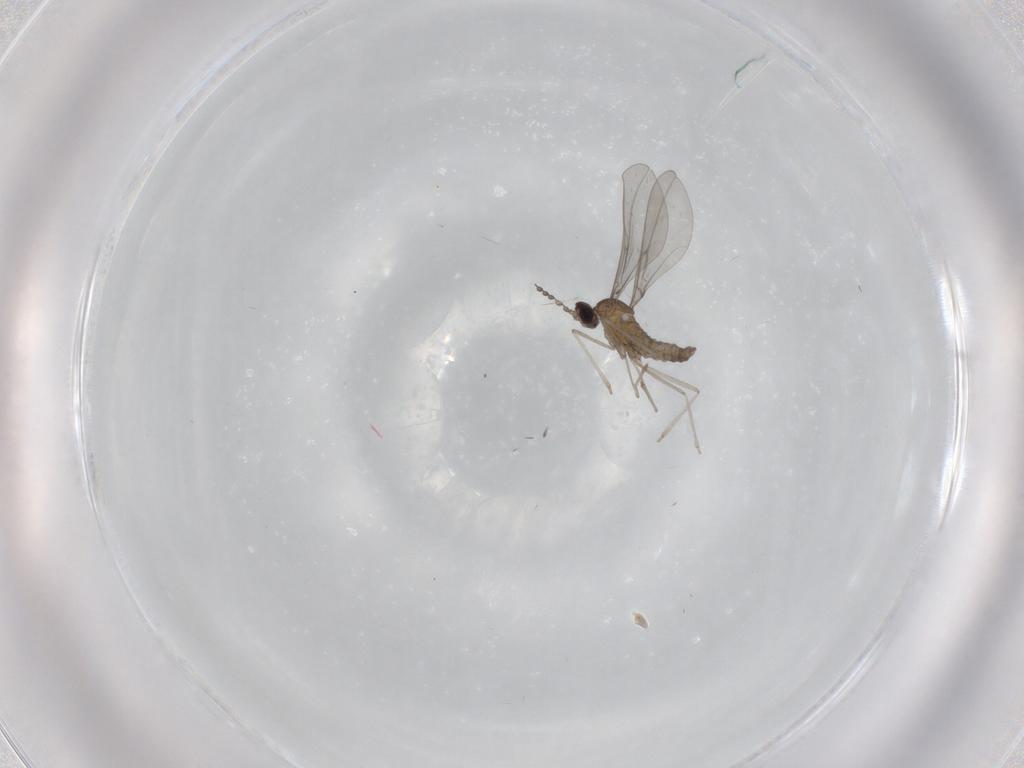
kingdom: Animalia
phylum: Arthropoda
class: Insecta
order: Diptera
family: Cecidomyiidae
